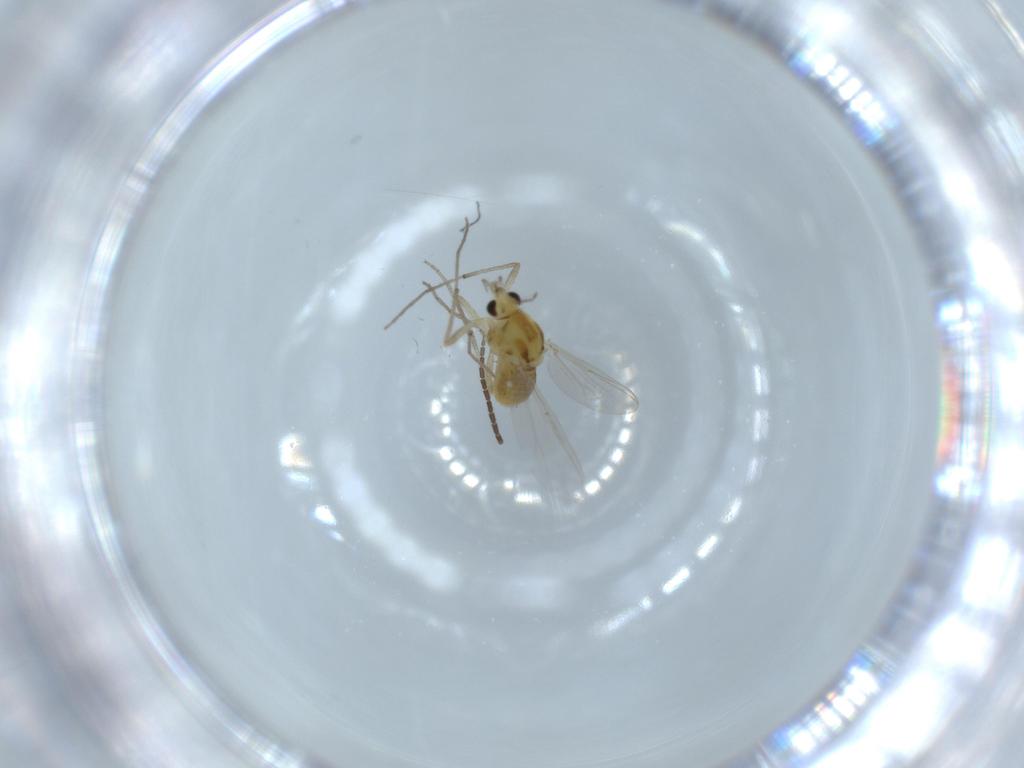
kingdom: Animalia
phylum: Arthropoda
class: Insecta
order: Diptera
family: Chironomidae
